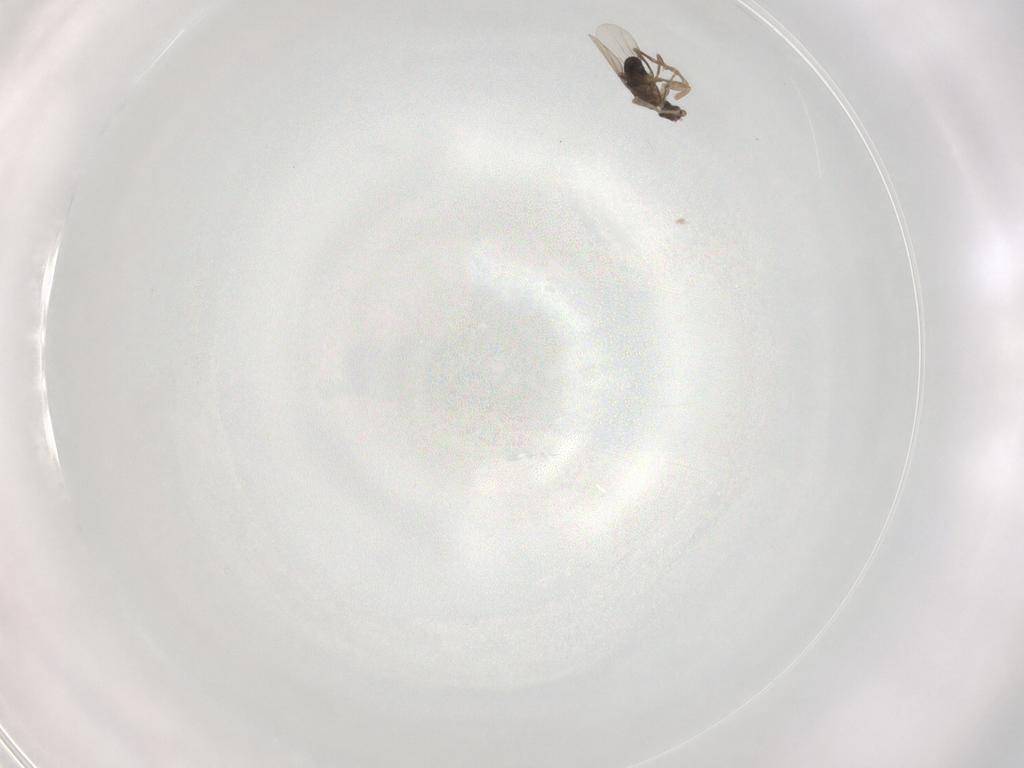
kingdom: Animalia
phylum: Arthropoda
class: Insecta
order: Diptera
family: Phoridae
